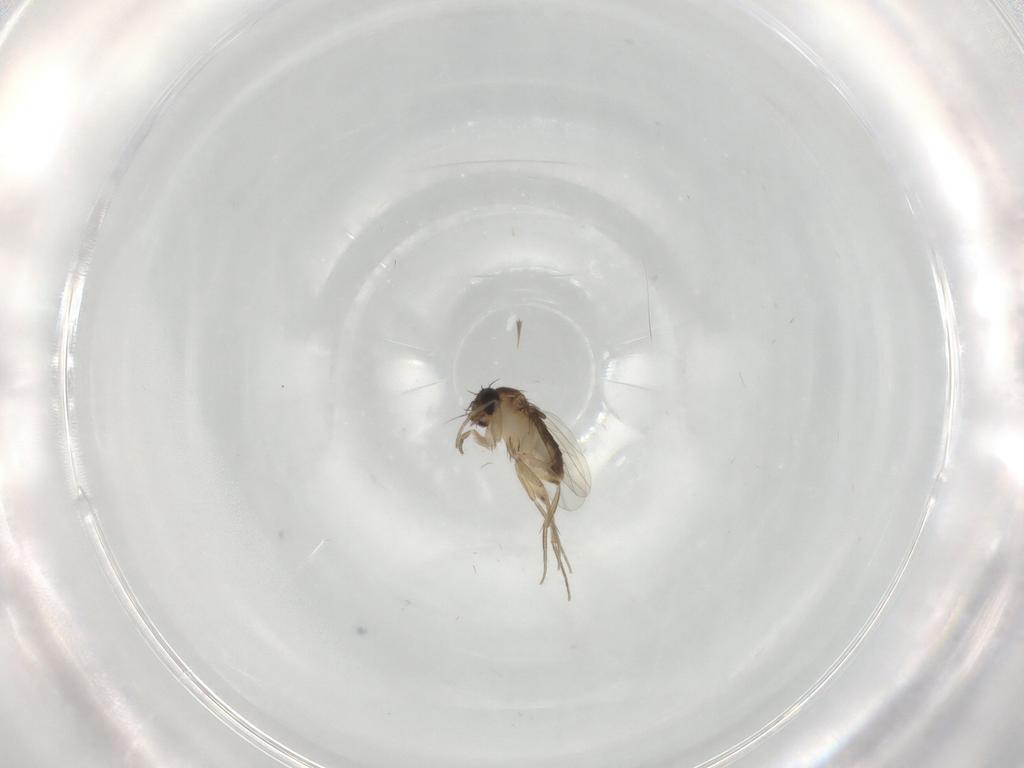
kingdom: Animalia
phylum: Arthropoda
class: Insecta
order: Diptera
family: Phoridae
